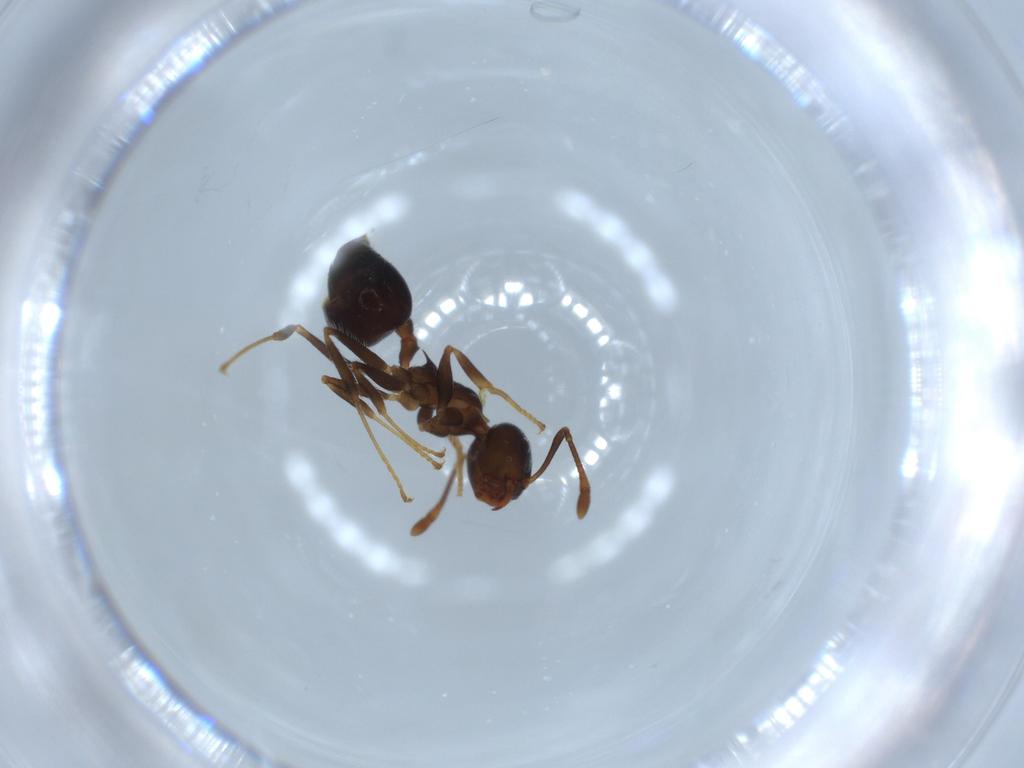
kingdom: Animalia
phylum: Arthropoda
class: Insecta
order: Hymenoptera
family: Formicidae
